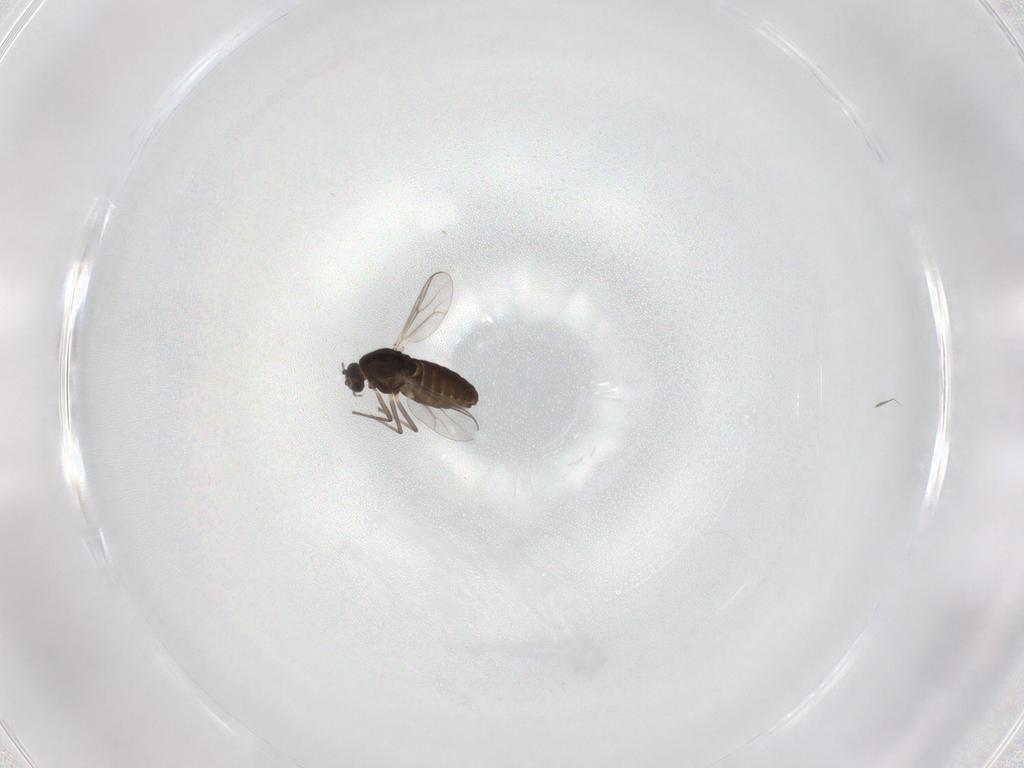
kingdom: Animalia
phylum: Arthropoda
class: Insecta
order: Diptera
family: Chironomidae
